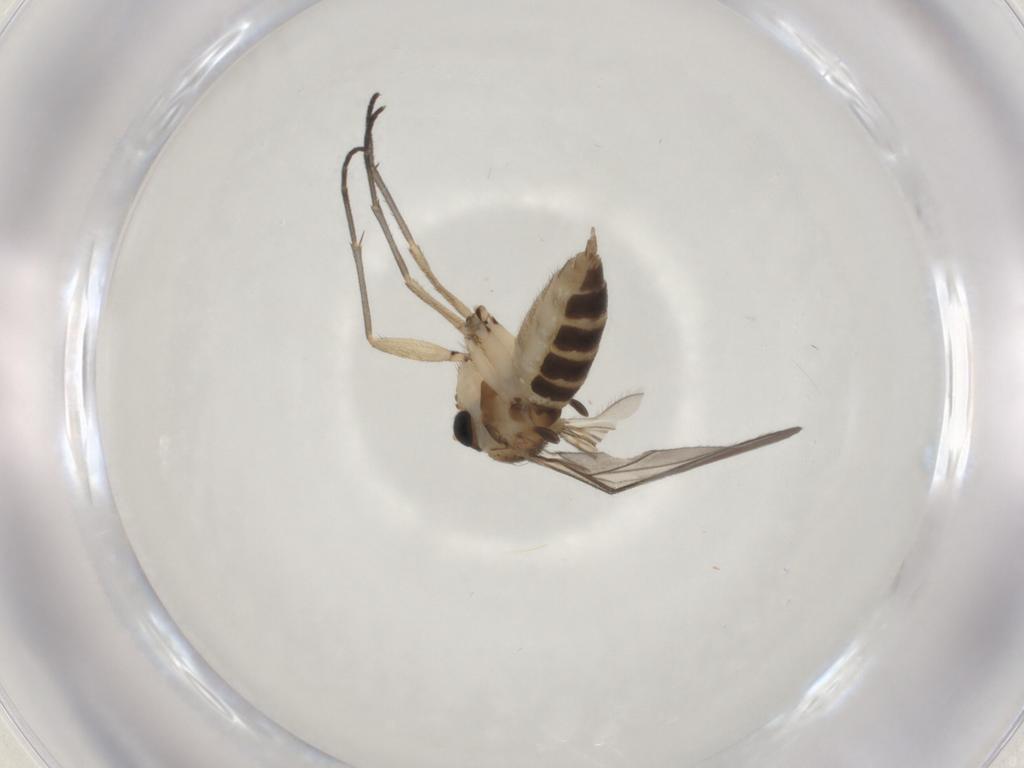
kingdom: Animalia
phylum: Arthropoda
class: Insecta
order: Diptera
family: Sciaridae
